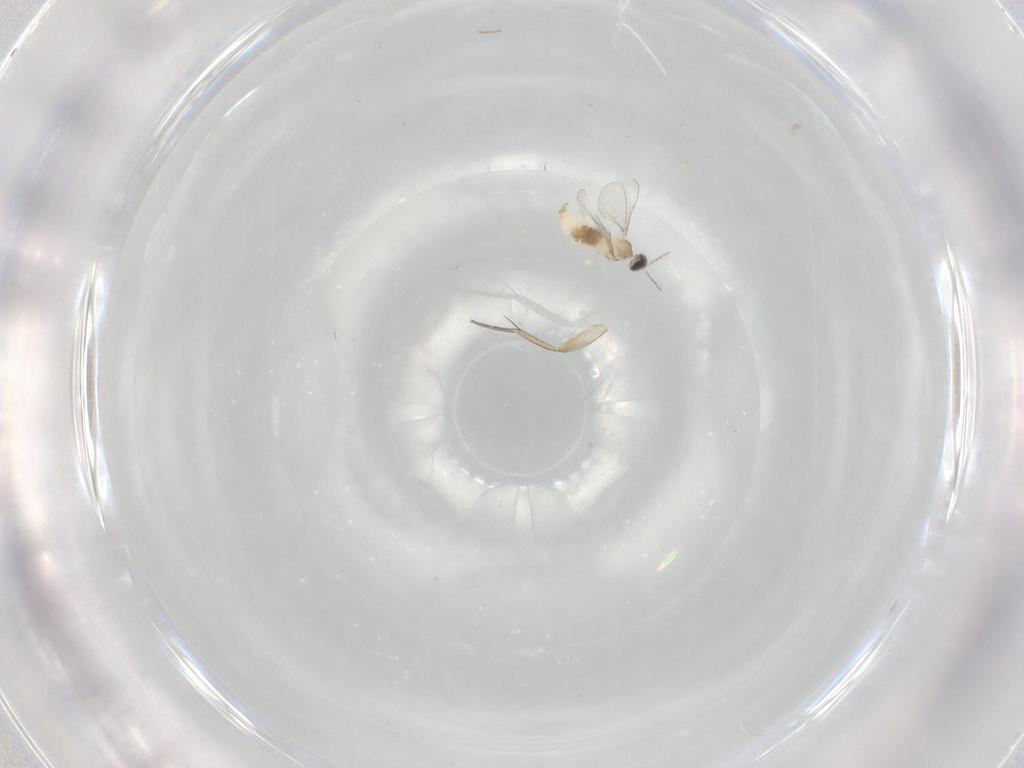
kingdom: Animalia
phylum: Arthropoda
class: Insecta
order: Diptera
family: Cecidomyiidae
